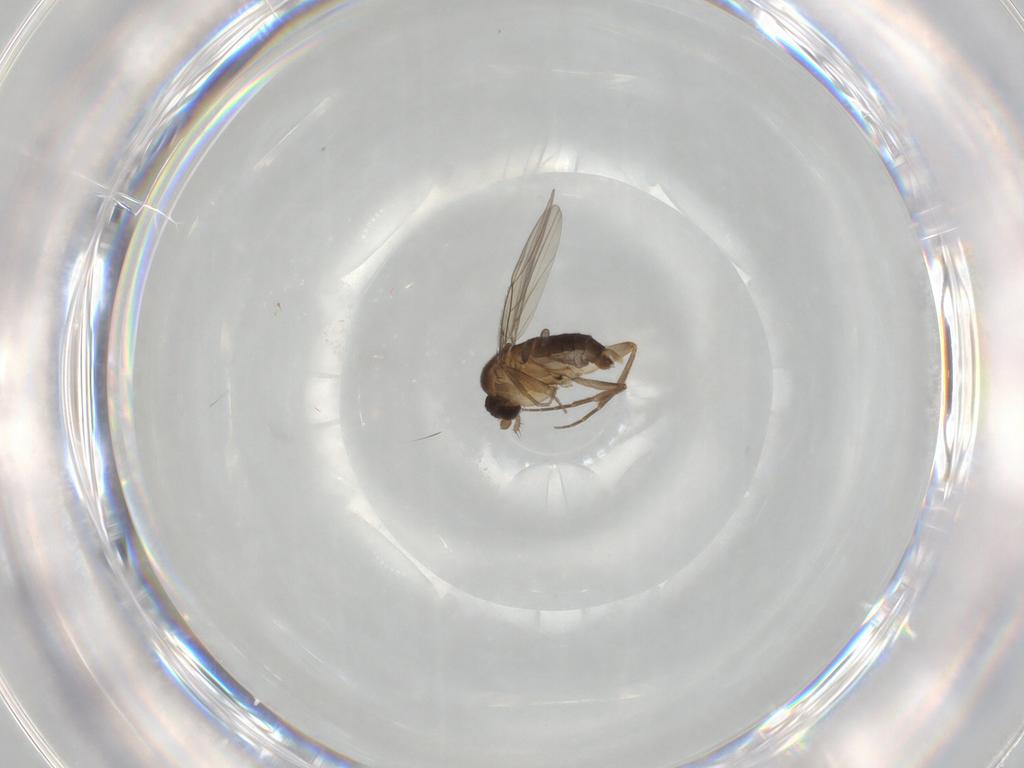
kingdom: Animalia
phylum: Arthropoda
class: Insecta
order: Diptera
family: Phoridae
